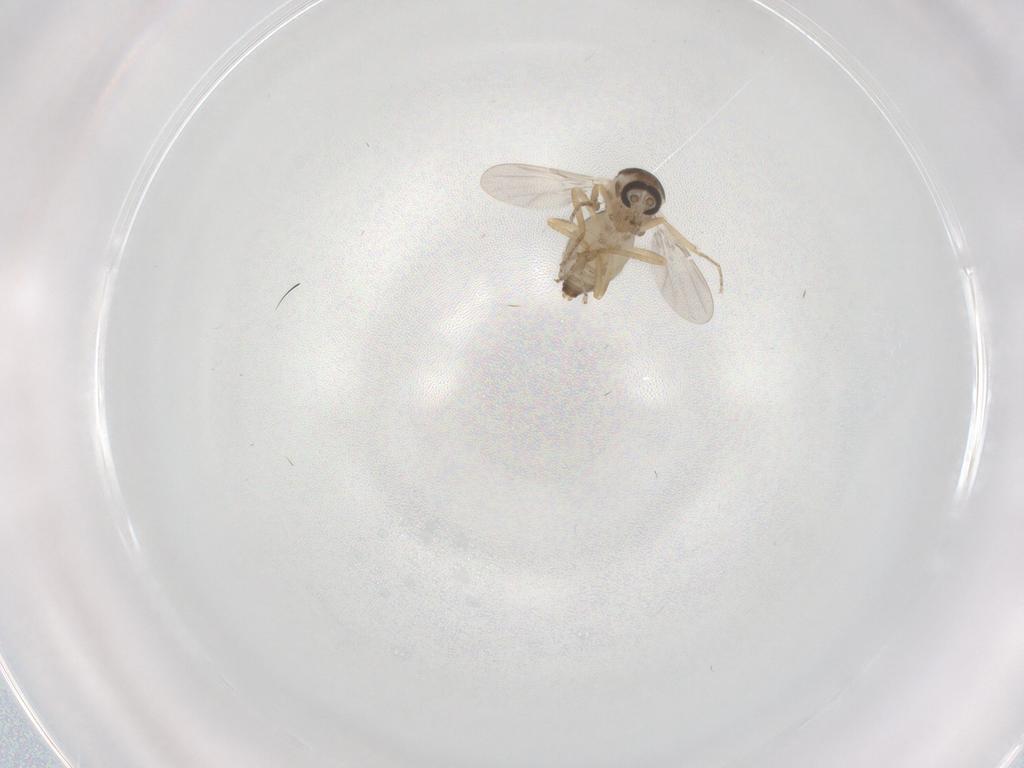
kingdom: Animalia
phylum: Arthropoda
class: Insecta
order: Diptera
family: Ceratopogonidae
